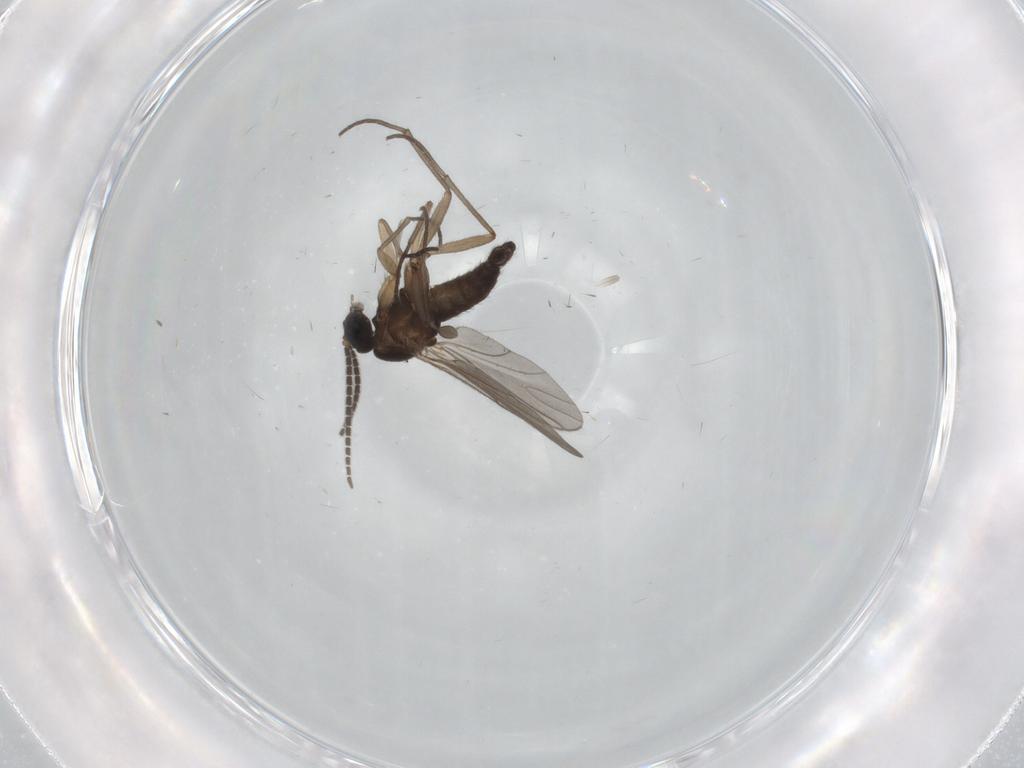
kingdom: Animalia
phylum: Arthropoda
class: Insecta
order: Diptera
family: Sciaridae
